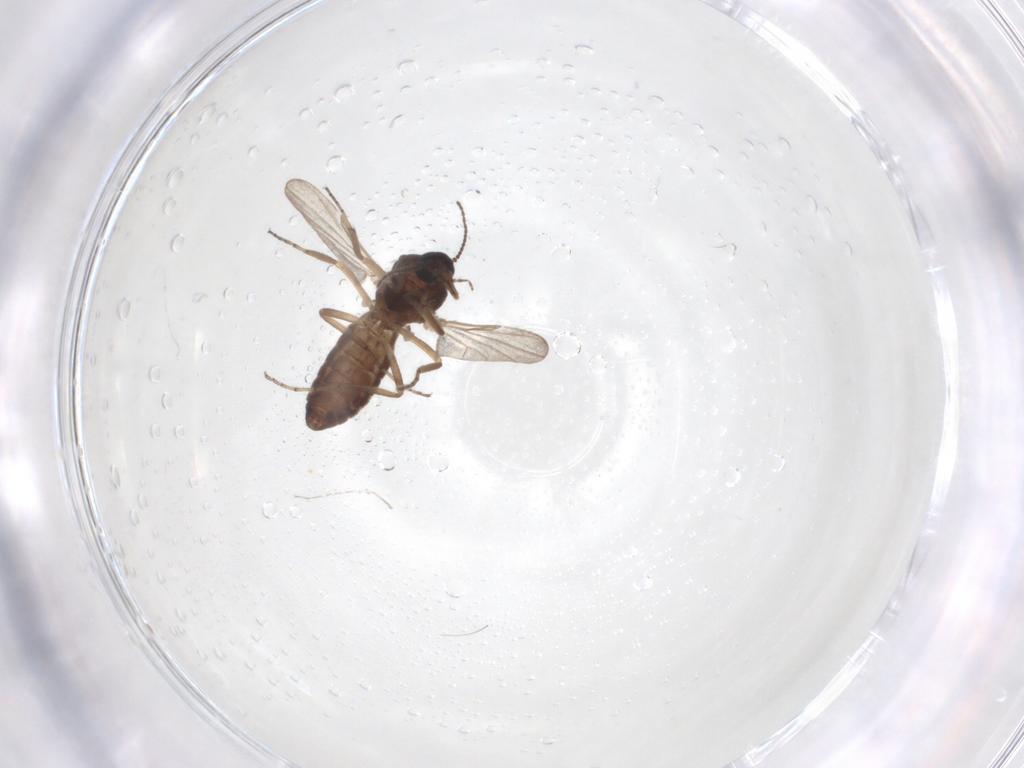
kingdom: Animalia
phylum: Arthropoda
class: Insecta
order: Diptera
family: Ceratopogonidae
